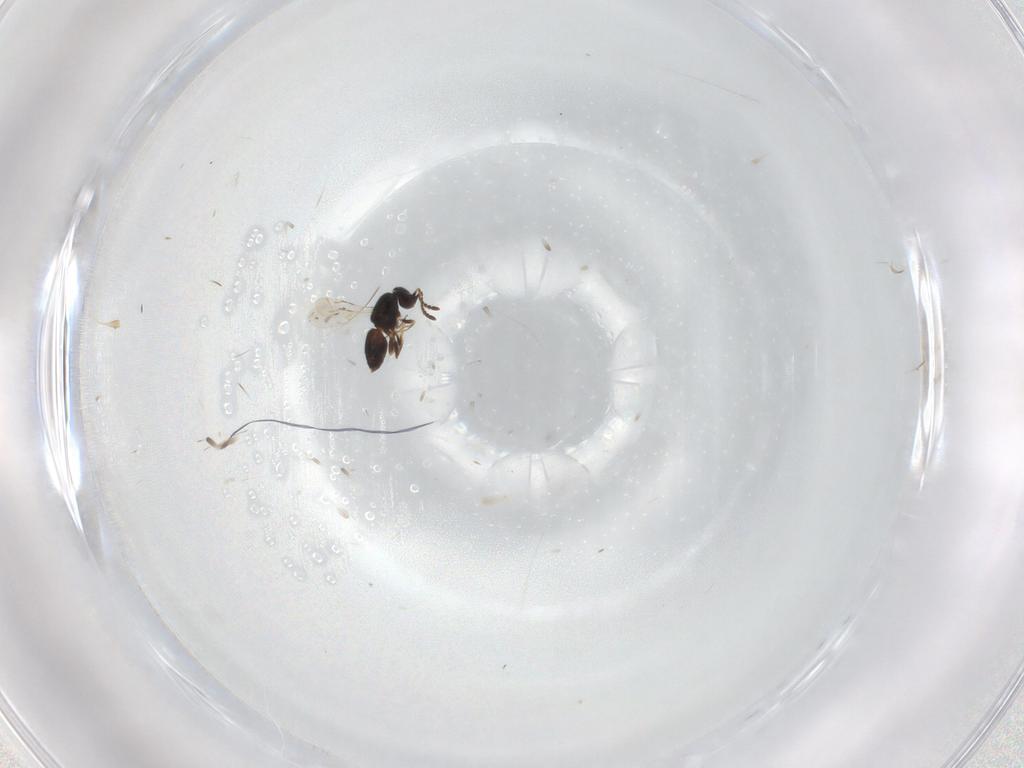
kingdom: Animalia
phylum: Arthropoda
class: Insecta
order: Hymenoptera
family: Ceraphronidae
